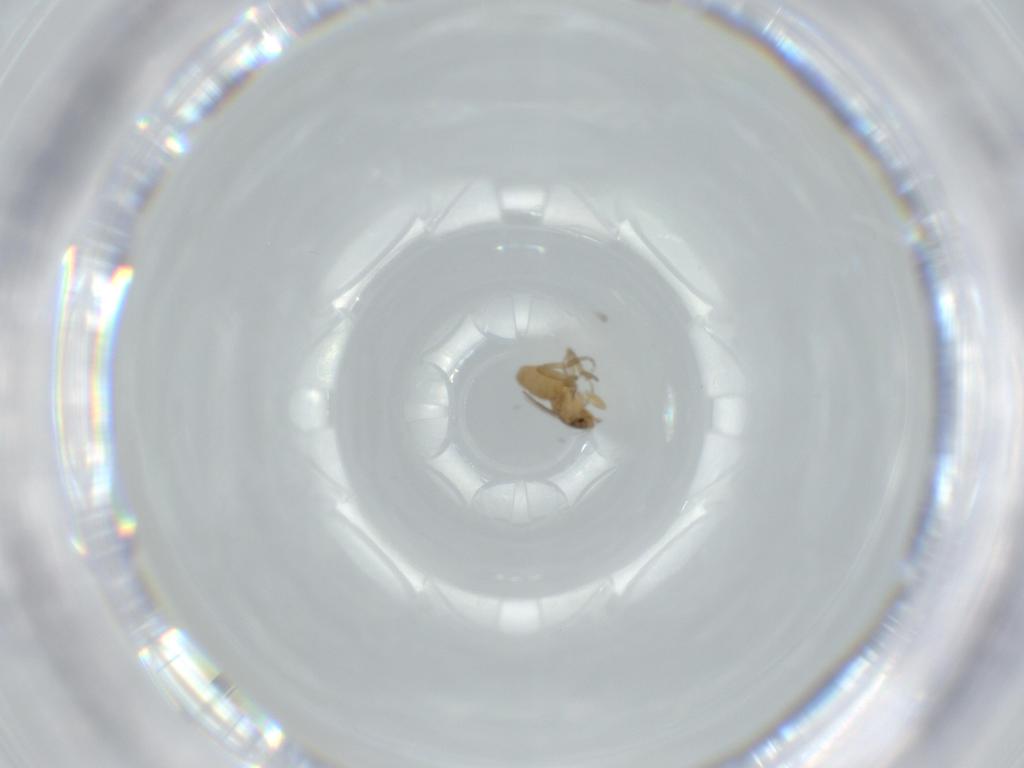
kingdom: Animalia
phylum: Arthropoda
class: Insecta
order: Diptera
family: Phoridae
